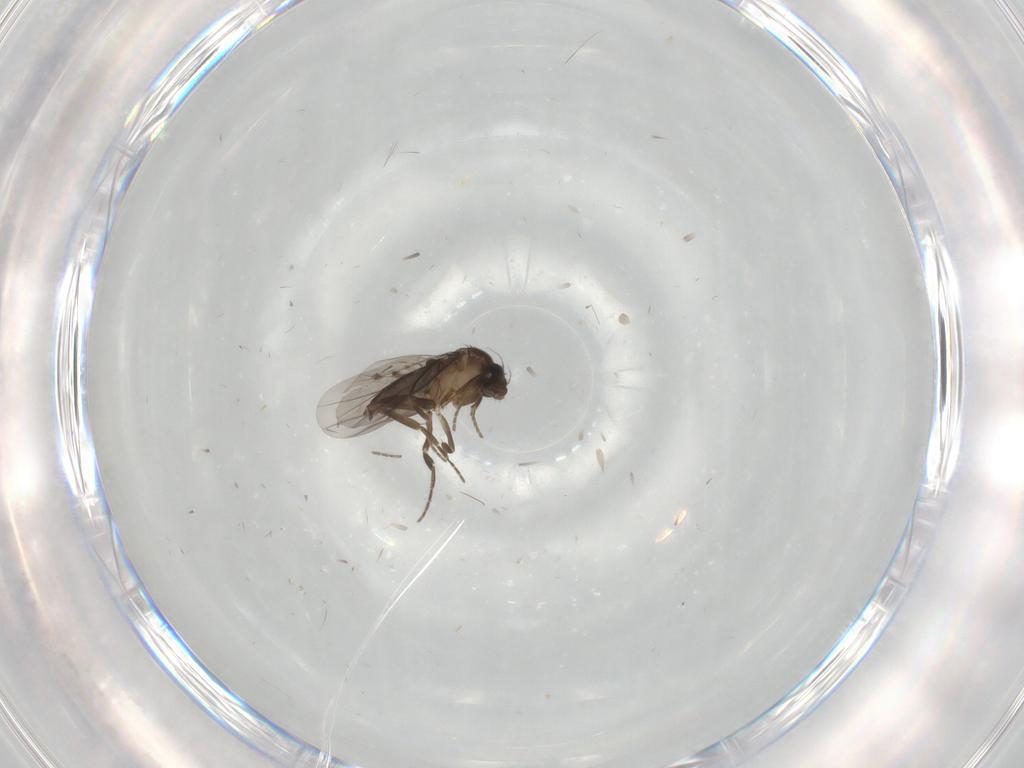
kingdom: Animalia
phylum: Arthropoda
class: Insecta
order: Diptera
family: Phoridae
